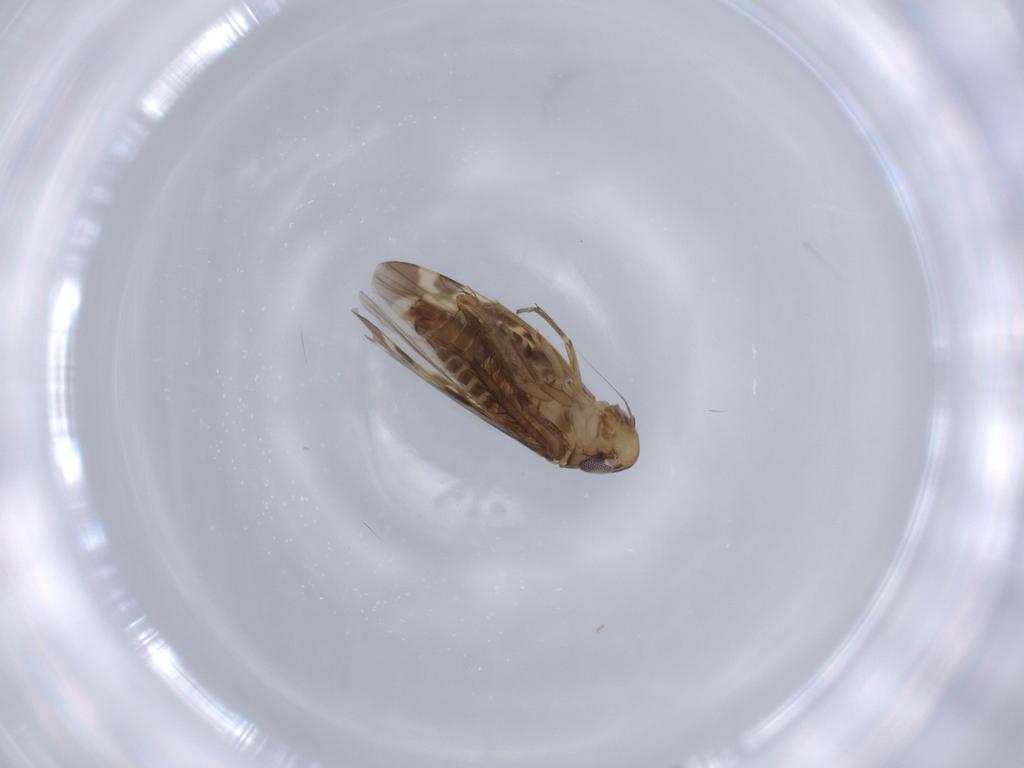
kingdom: Animalia
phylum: Arthropoda
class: Insecta
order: Hemiptera
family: Cicadellidae
